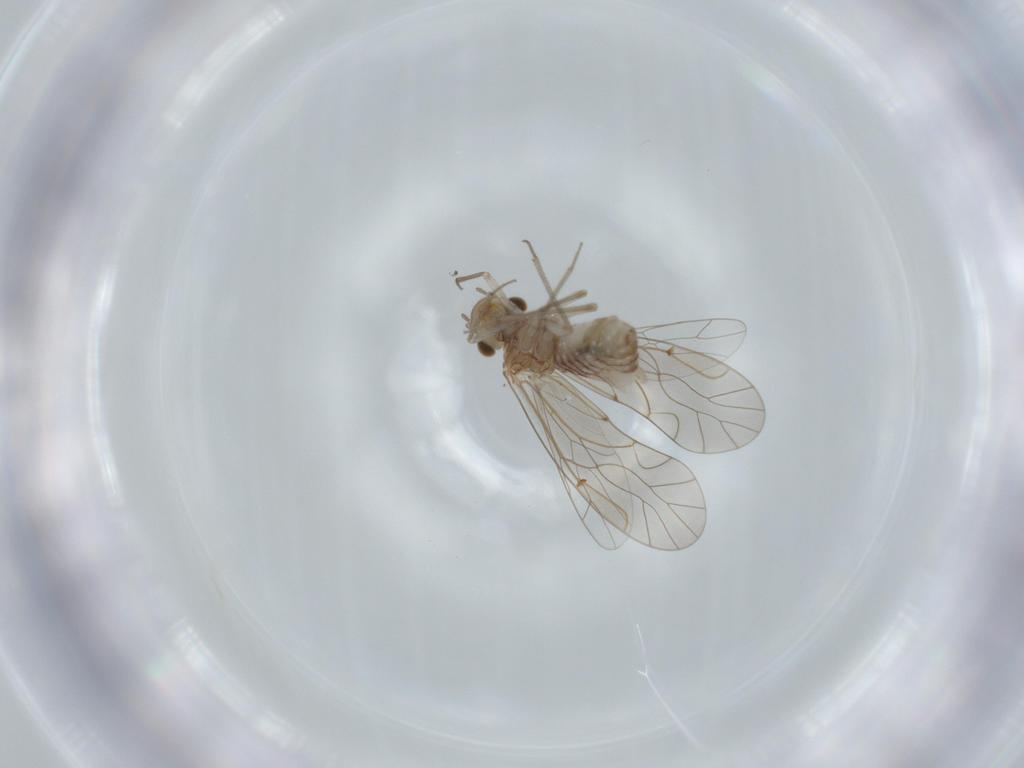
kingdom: Animalia
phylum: Arthropoda
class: Insecta
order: Psocodea
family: Lachesillidae
